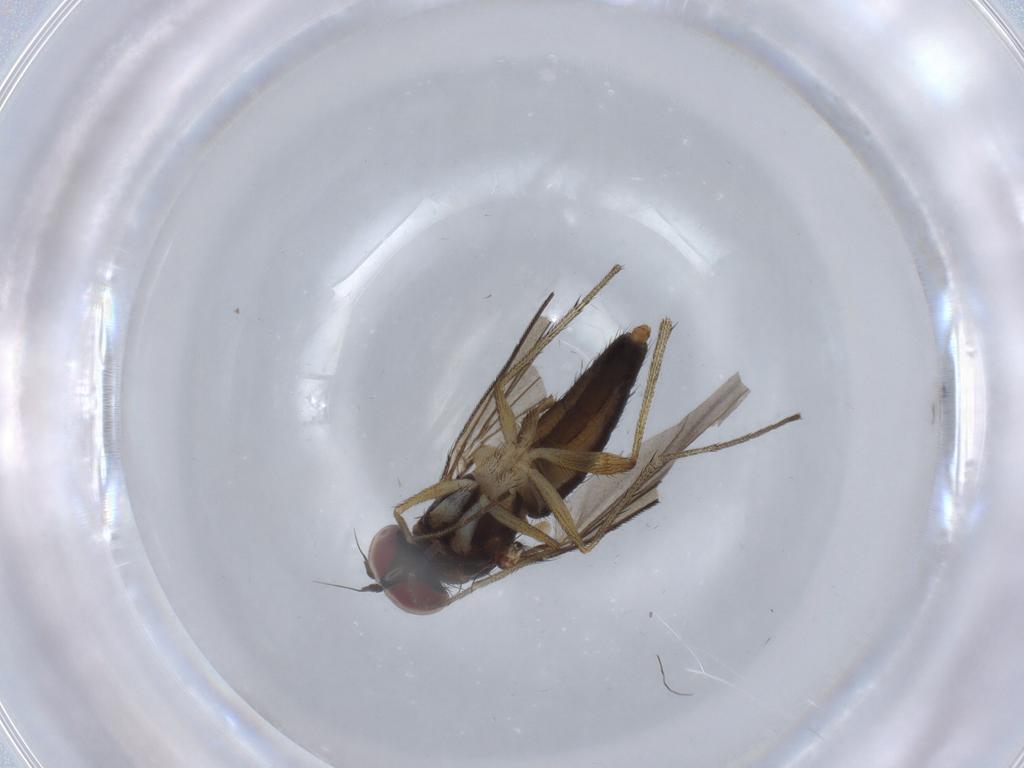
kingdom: Animalia
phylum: Arthropoda
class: Insecta
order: Diptera
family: Dolichopodidae
